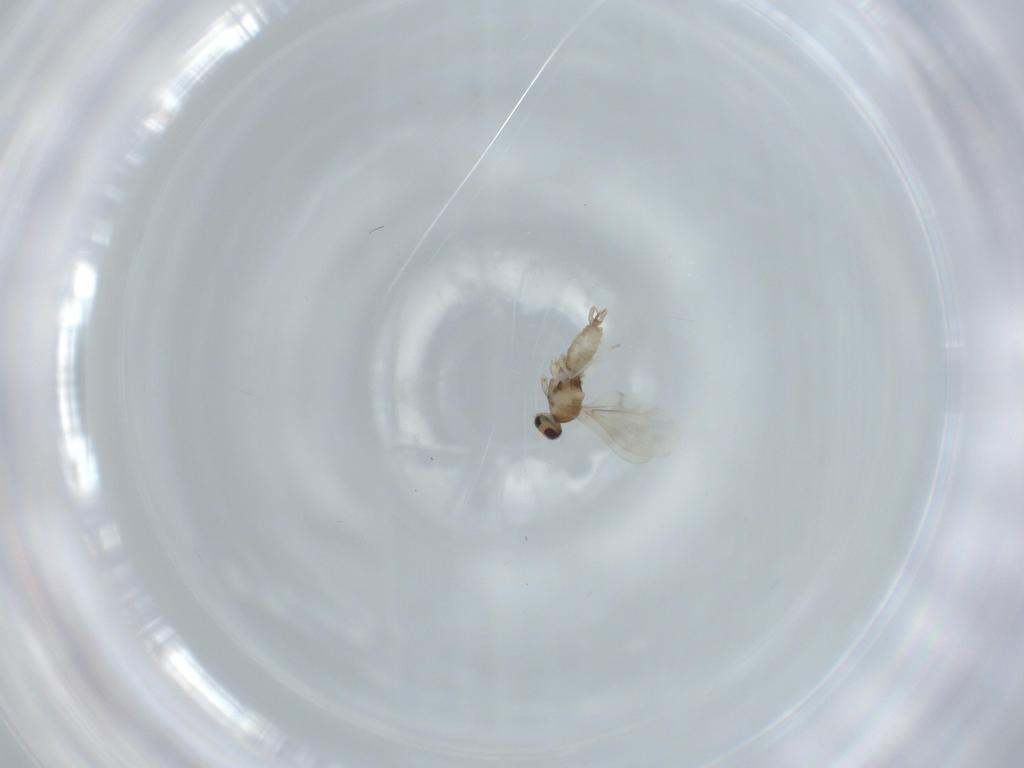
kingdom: Animalia
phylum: Arthropoda
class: Insecta
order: Diptera
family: Cecidomyiidae
